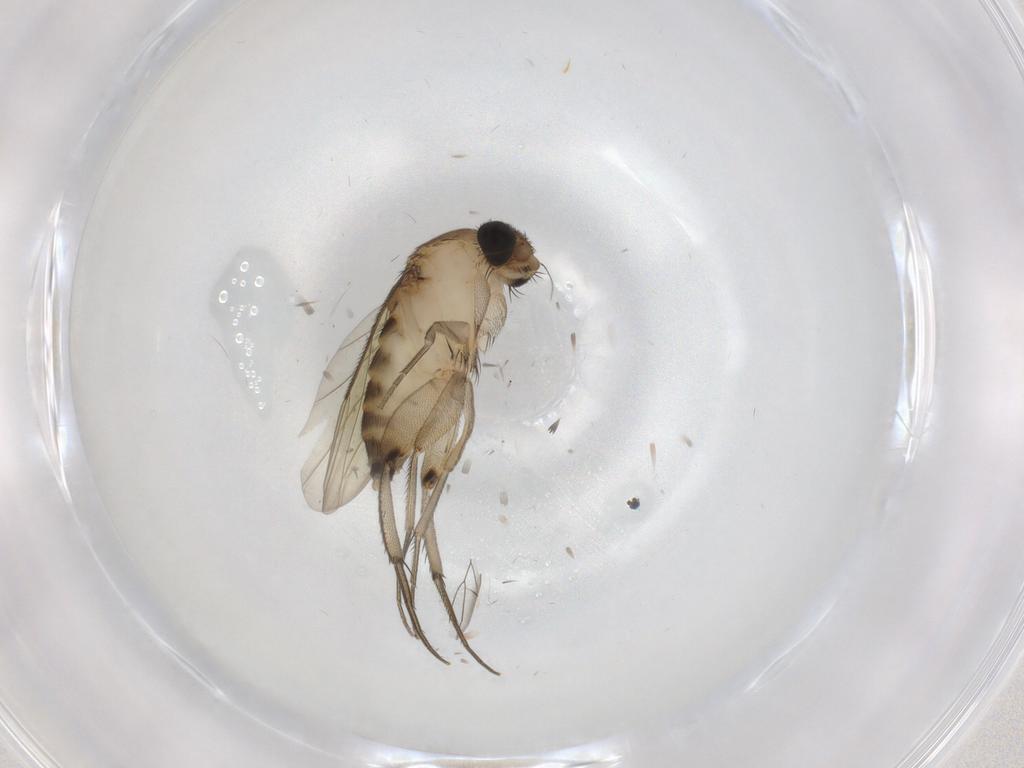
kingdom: Animalia
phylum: Arthropoda
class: Insecta
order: Diptera
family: Phoridae
